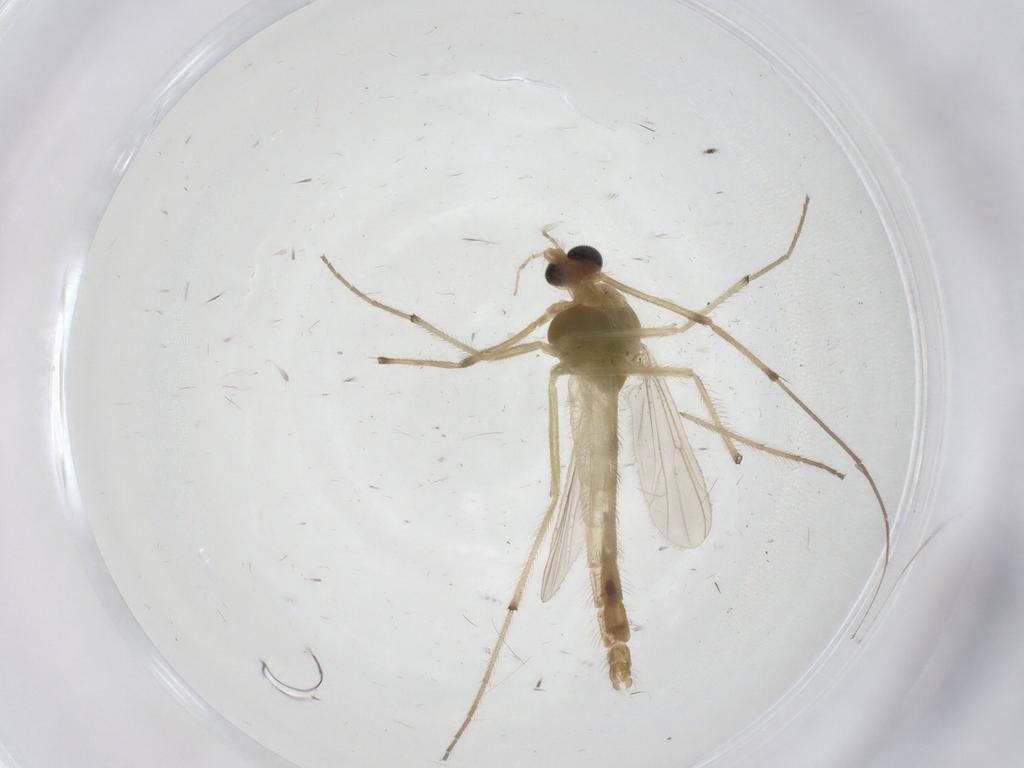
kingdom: Animalia
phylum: Arthropoda
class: Insecta
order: Diptera
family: Chironomidae
